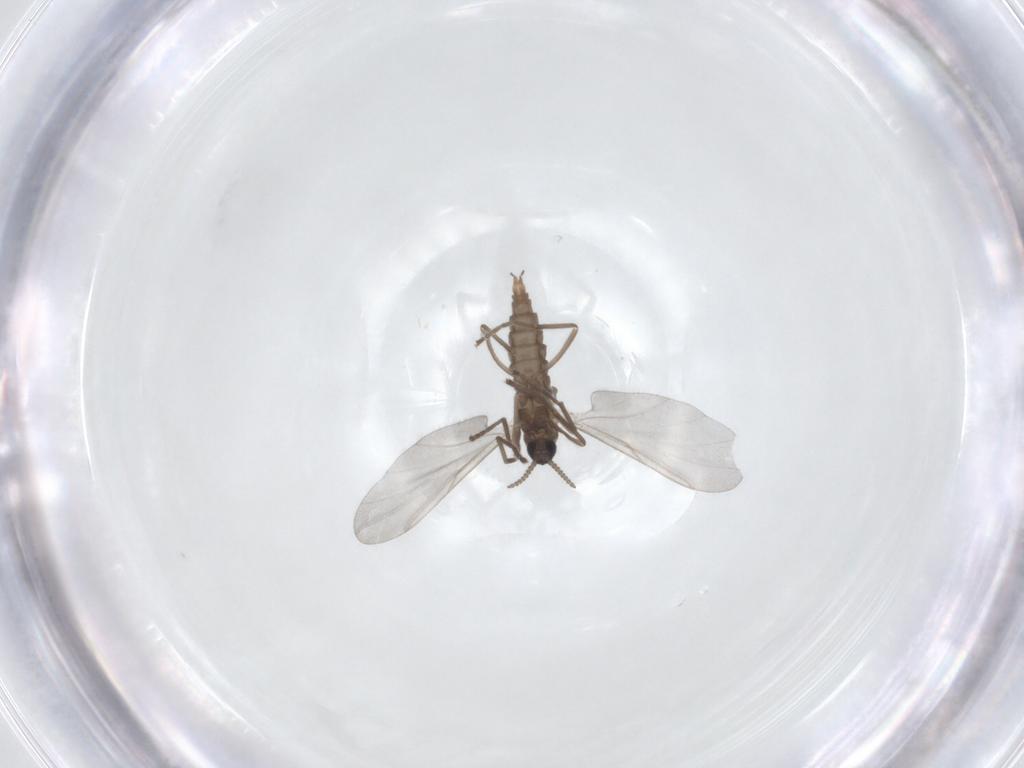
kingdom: Animalia
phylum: Arthropoda
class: Insecta
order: Diptera
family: Cecidomyiidae
